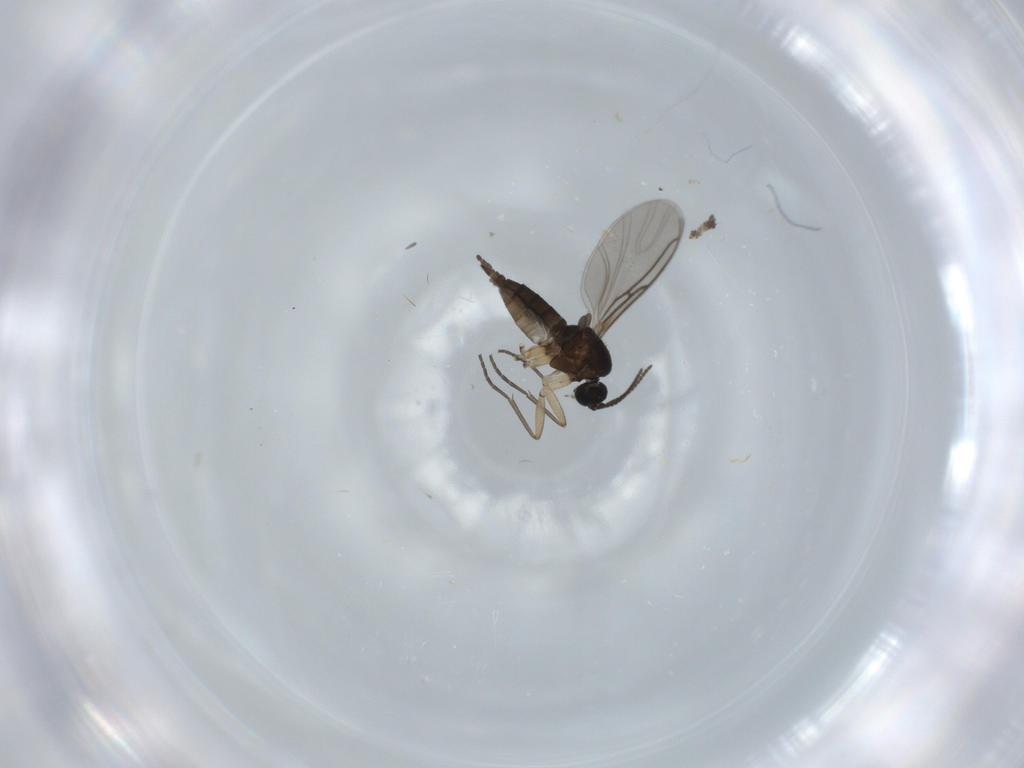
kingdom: Animalia
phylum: Arthropoda
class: Insecta
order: Diptera
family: Phoridae
